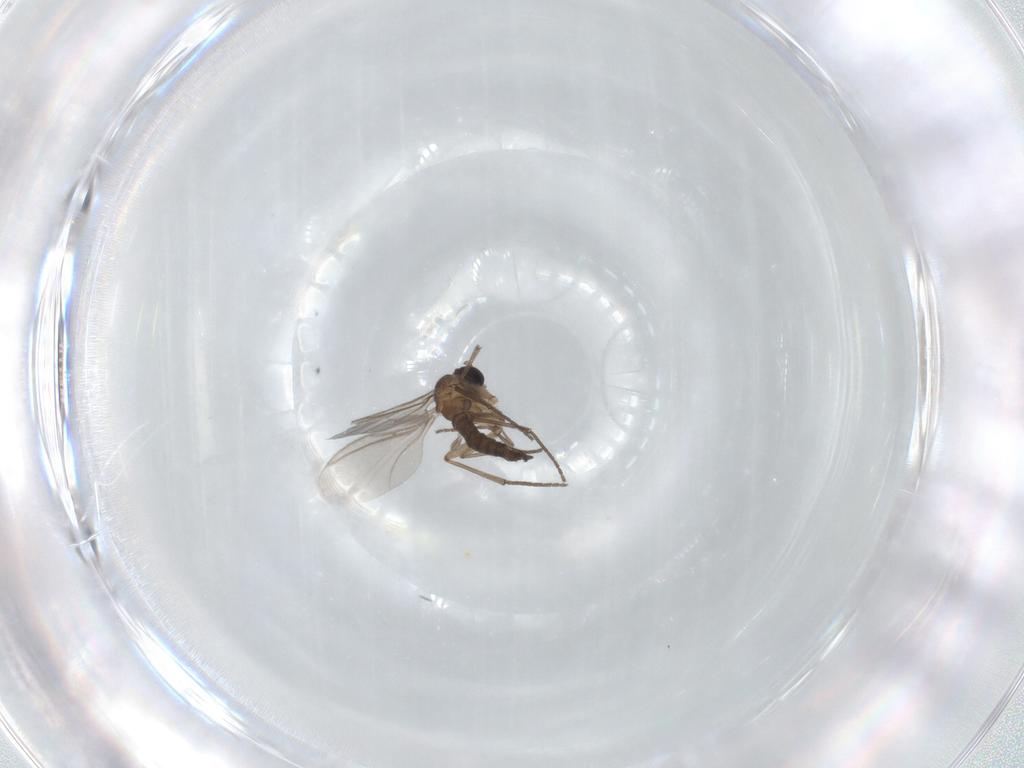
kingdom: Animalia
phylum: Arthropoda
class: Insecta
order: Diptera
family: Sciaridae
